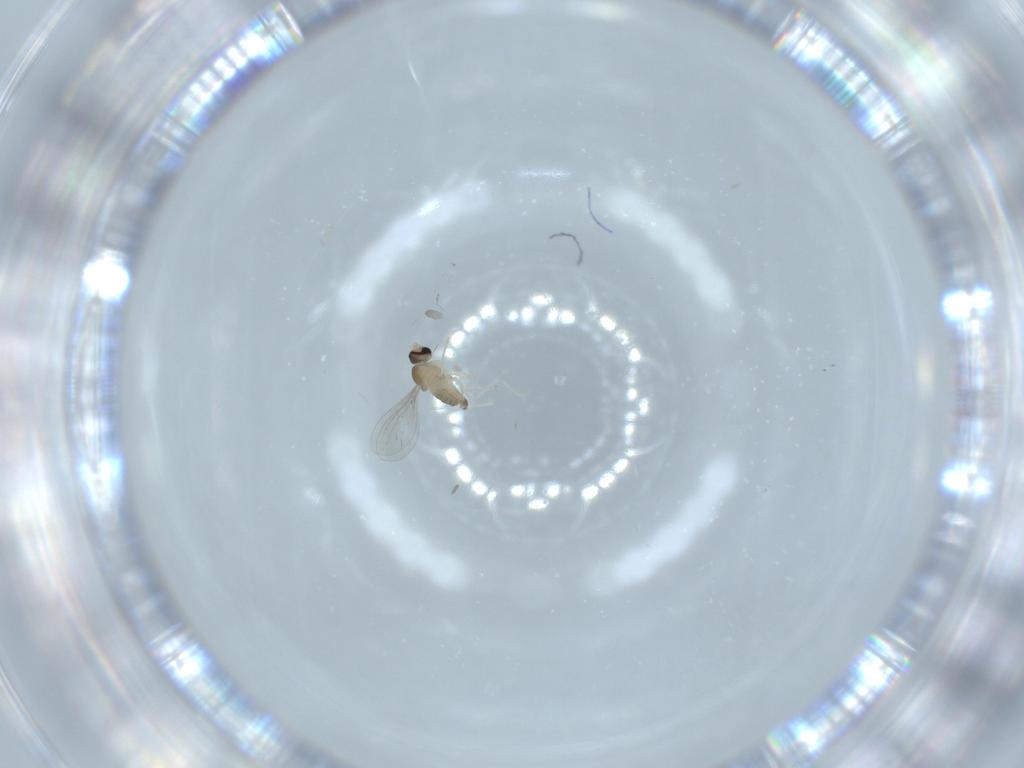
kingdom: Animalia
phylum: Arthropoda
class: Insecta
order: Diptera
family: Cecidomyiidae
